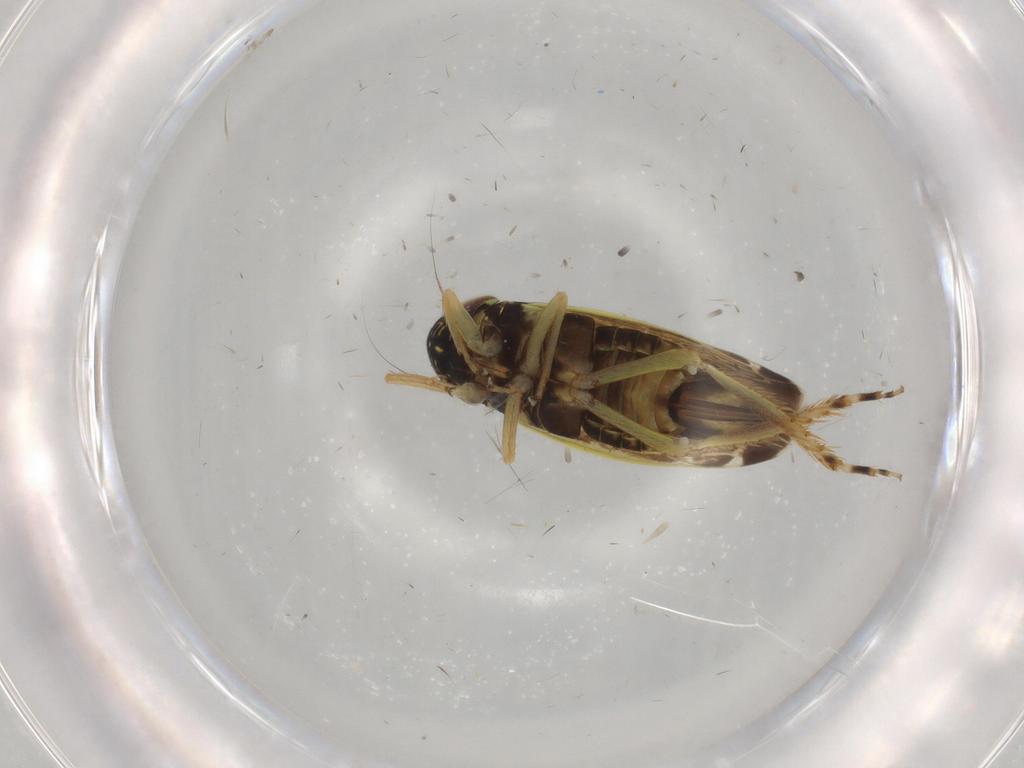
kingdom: Animalia
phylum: Arthropoda
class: Insecta
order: Hemiptera
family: Cicadellidae
